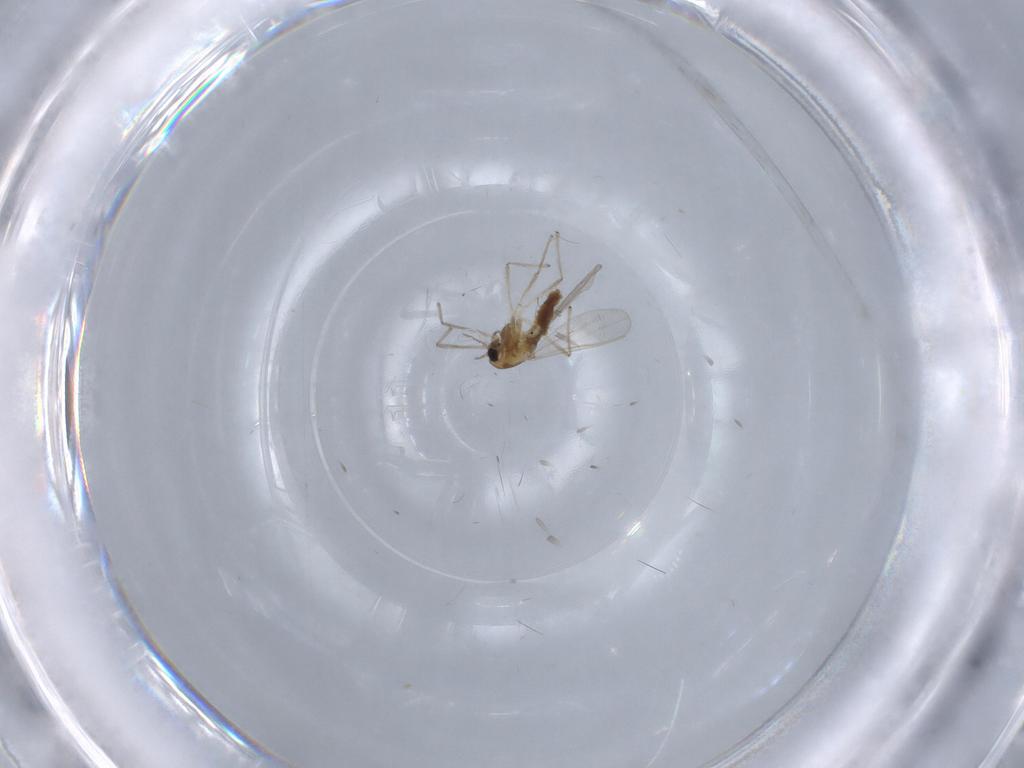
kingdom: Animalia
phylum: Arthropoda
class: Insecta
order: Diptera
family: Chironomidae
